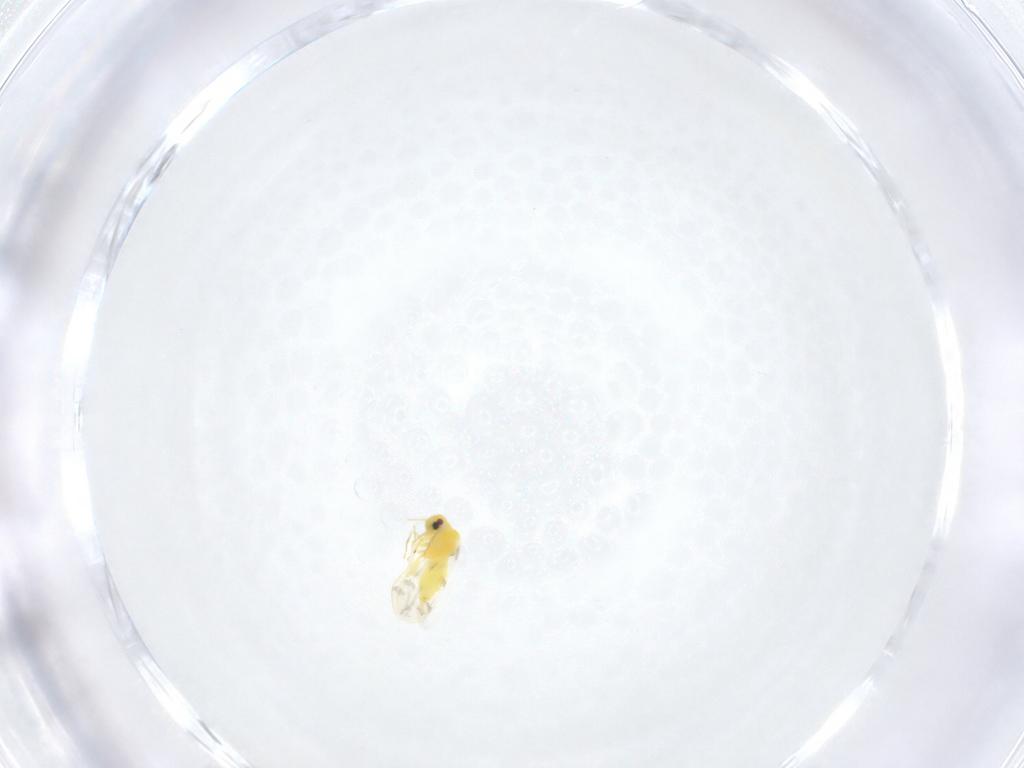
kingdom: Animalia
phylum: Arthropoda
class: Insecta
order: Hemiptera
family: Aleyrodidae
